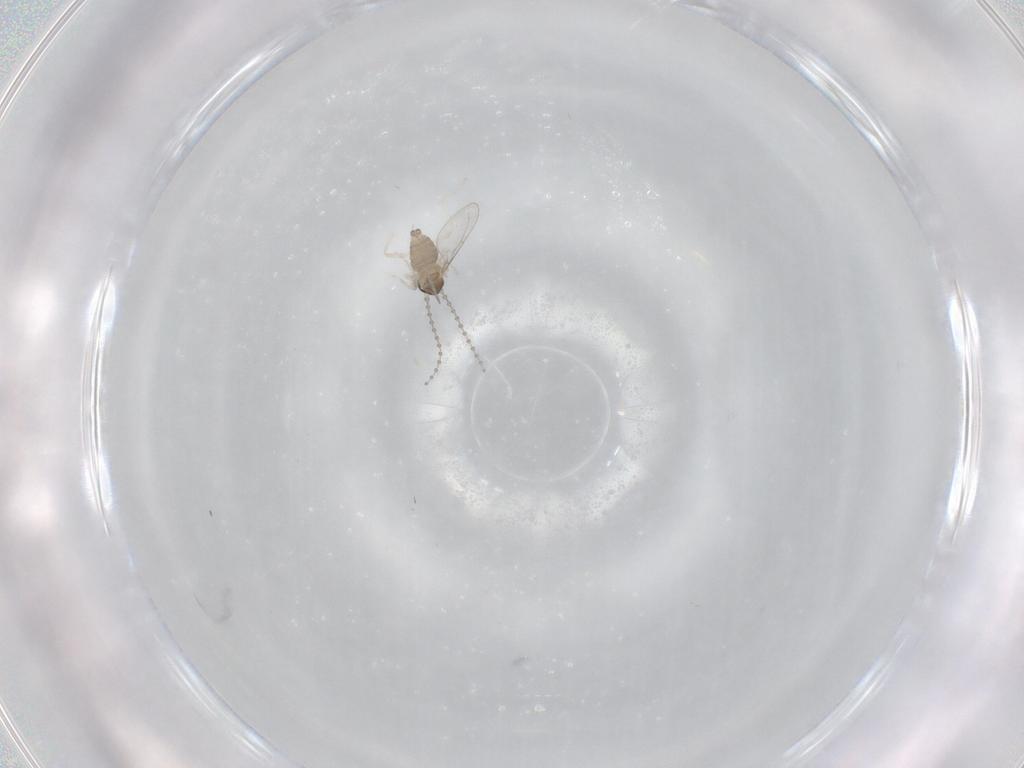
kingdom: Animalia
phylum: Arthropoda
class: Insecta
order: Diptera
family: Cecidomyiidae
